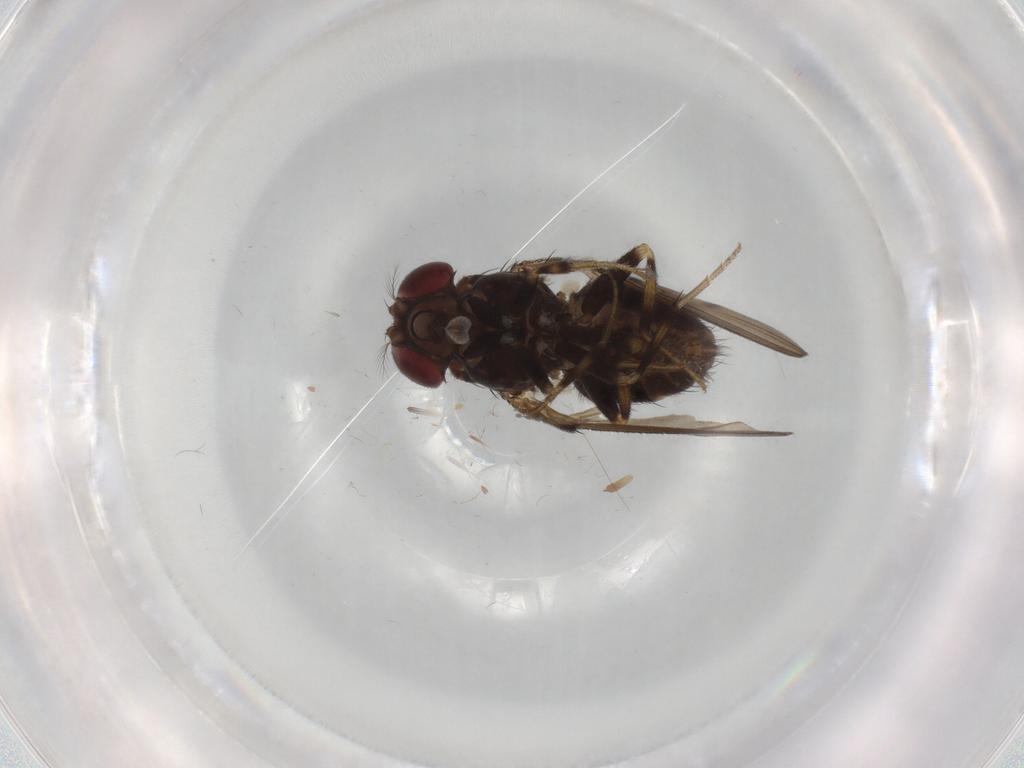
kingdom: Animalia
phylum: Arthropoda
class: Insecta
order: Diptera
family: Drosophilidae
